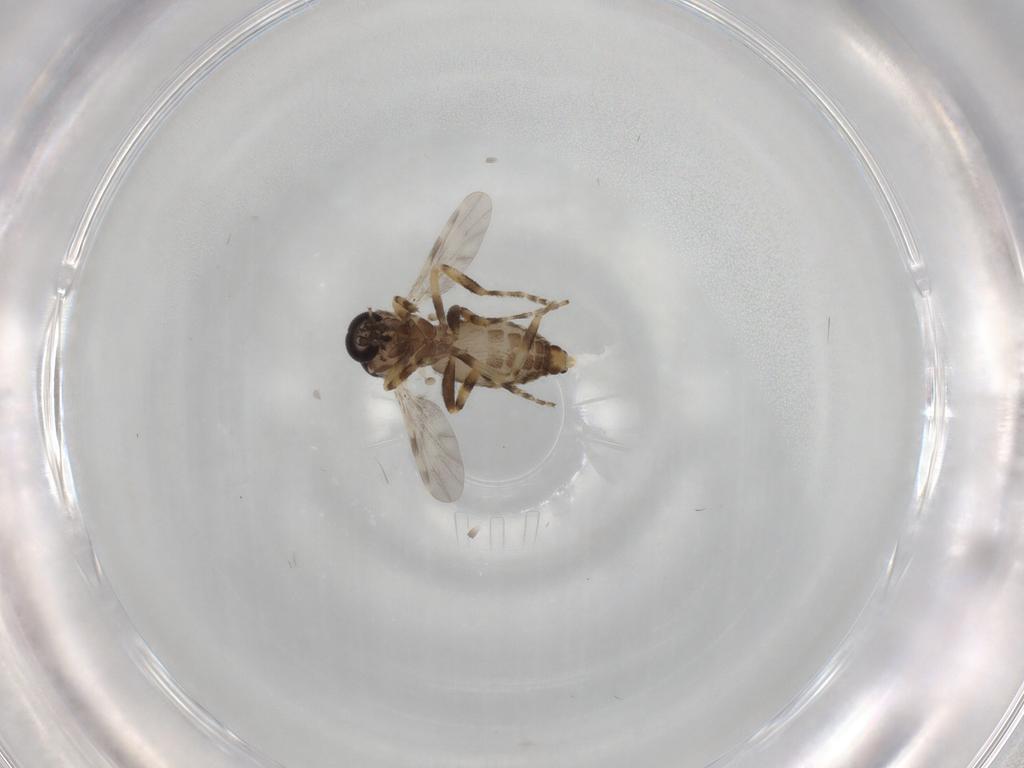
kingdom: Animalia
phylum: Arthropoda
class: Insecta
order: Diptera
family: Ceratopogonidae
